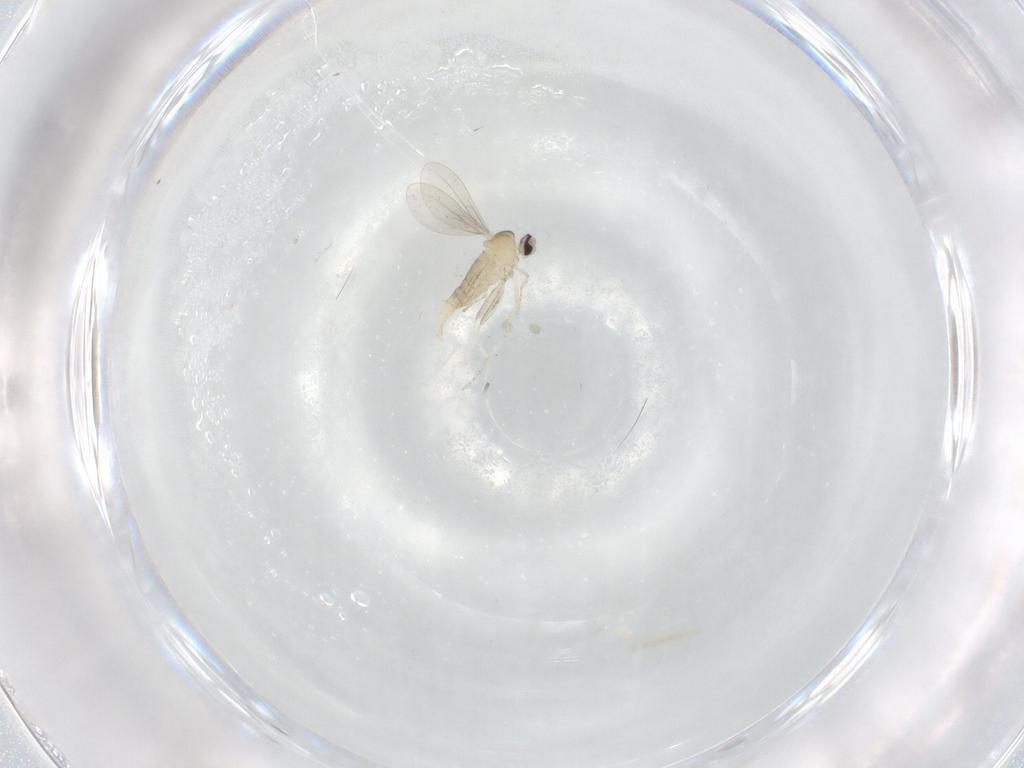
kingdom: Animalia
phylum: Arthropoda
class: Insecta
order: Diptera
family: Cecidomyiidae
